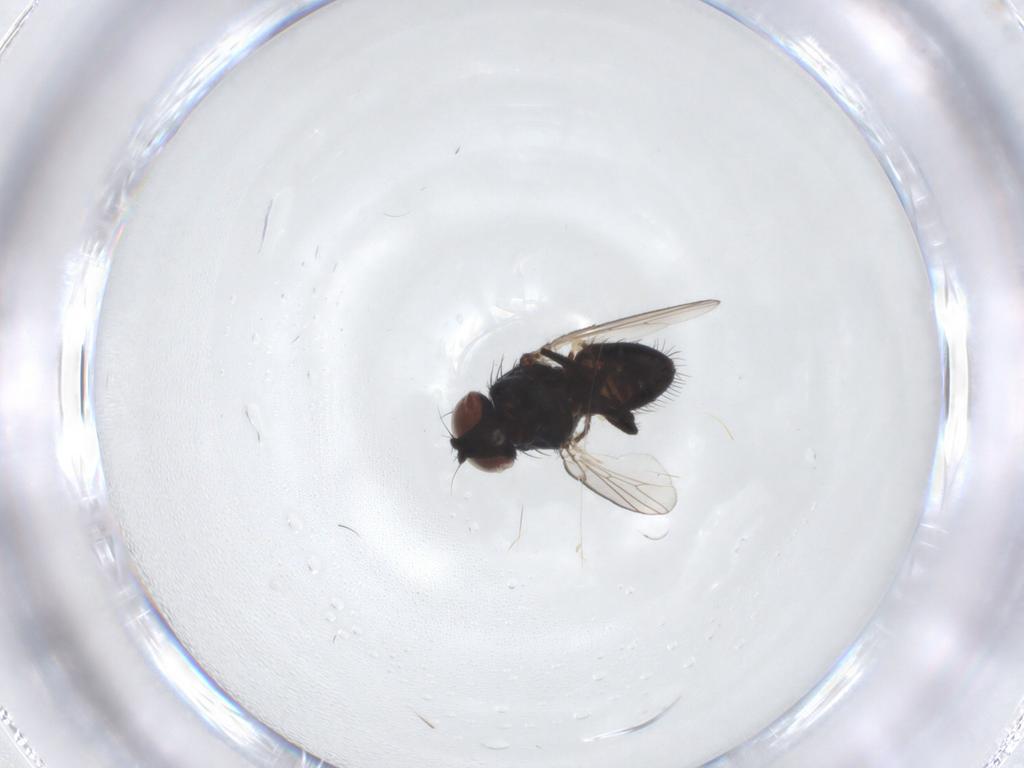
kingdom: Animalia
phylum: Arthropoda
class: Insecta
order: Diptera
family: Milichiidae
